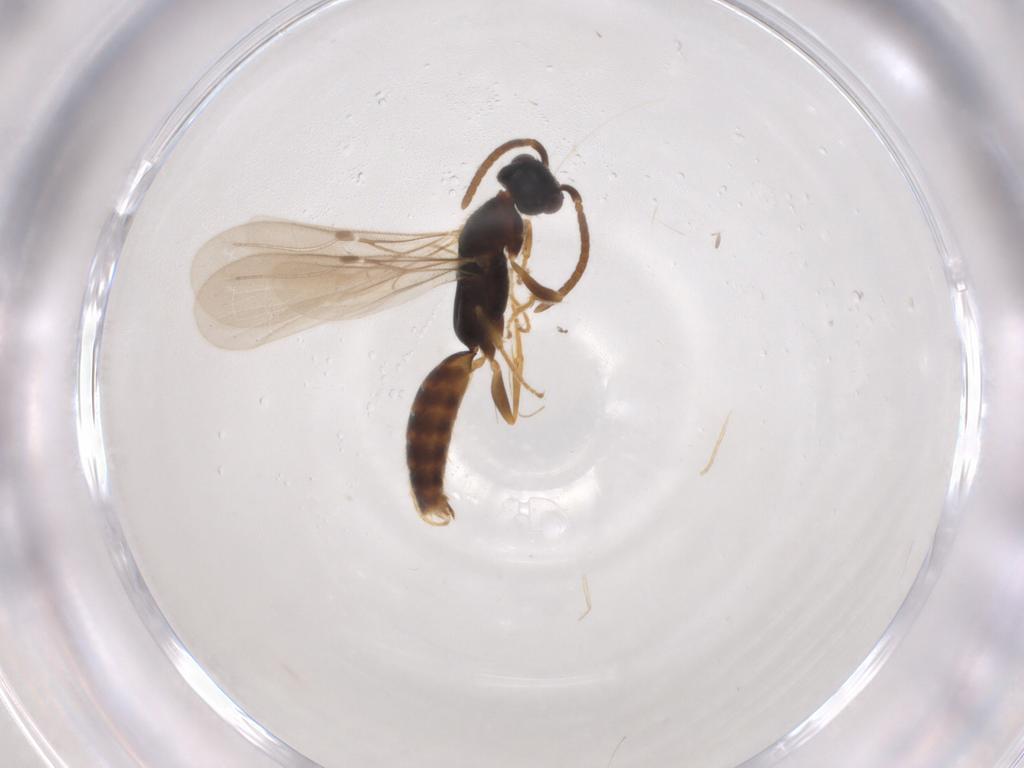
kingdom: Animalia
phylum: Arthropoda
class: Insecta
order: Hymenoptera
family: Bethylidae
